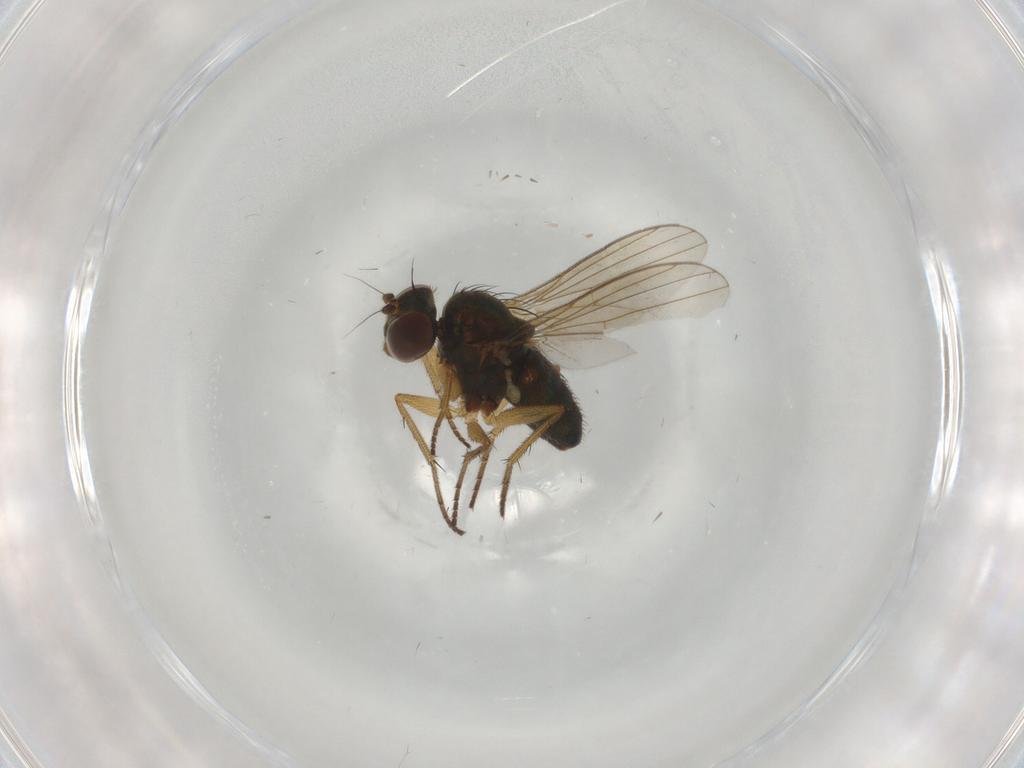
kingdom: Animalia
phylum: Arthropoda
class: Insecta
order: Diptera
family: Dolichopodidae
